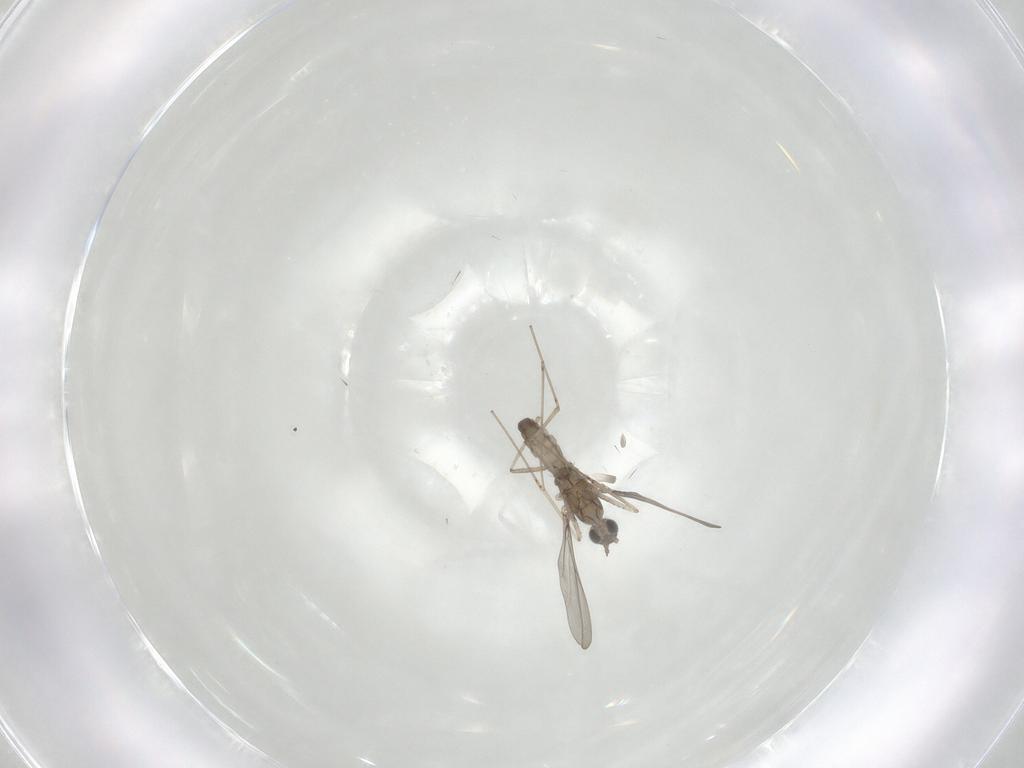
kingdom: Animalia
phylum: Arthropoda
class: Insecta
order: Diptera
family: Cecidomyiidae
